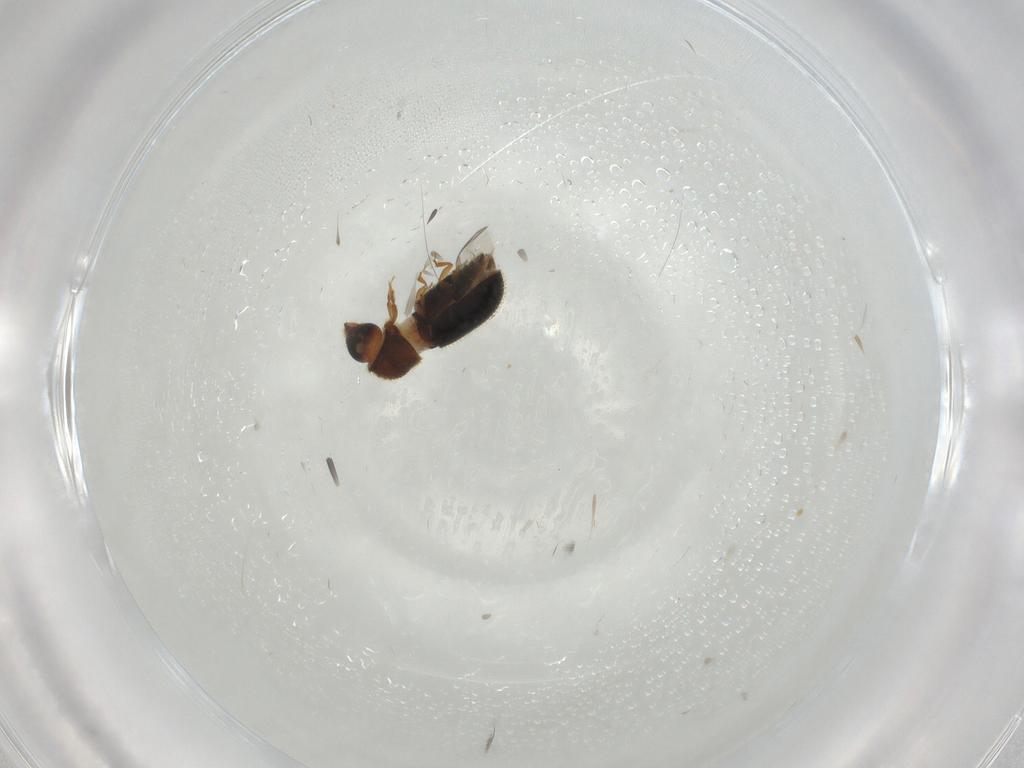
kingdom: Animalia
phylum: Arthropoda
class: Insecta
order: Coleoptera
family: Curculionidae
